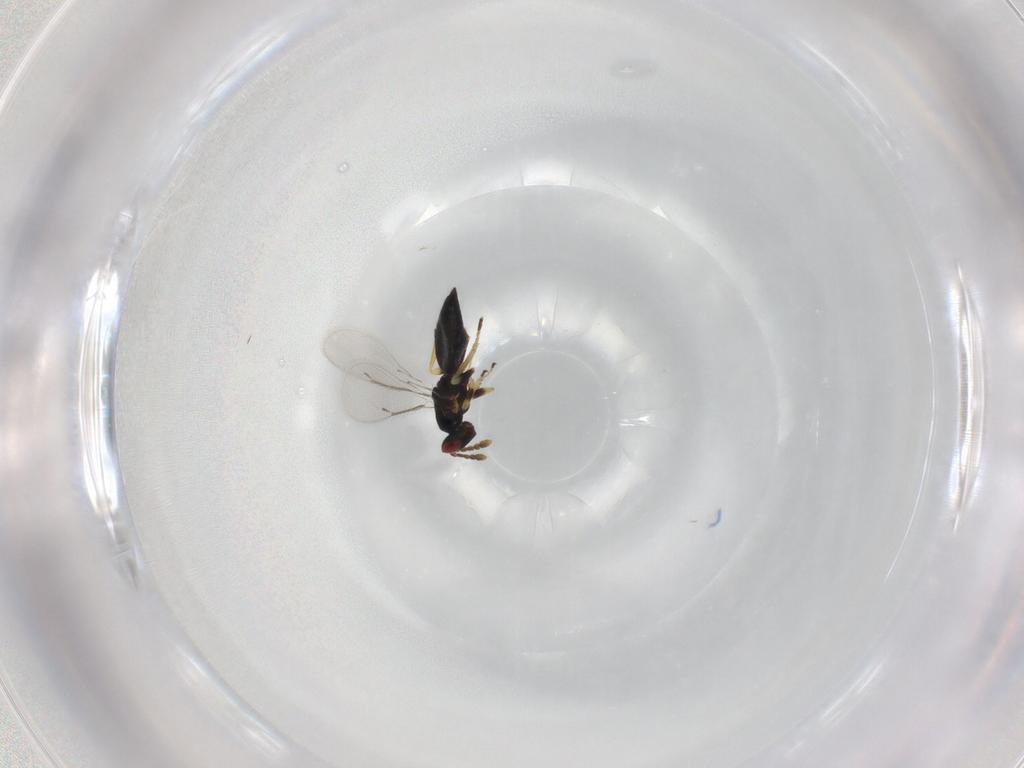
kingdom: Animalia
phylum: Arthropoda
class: Insecta
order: Hymenoptera
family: Eulophidae
